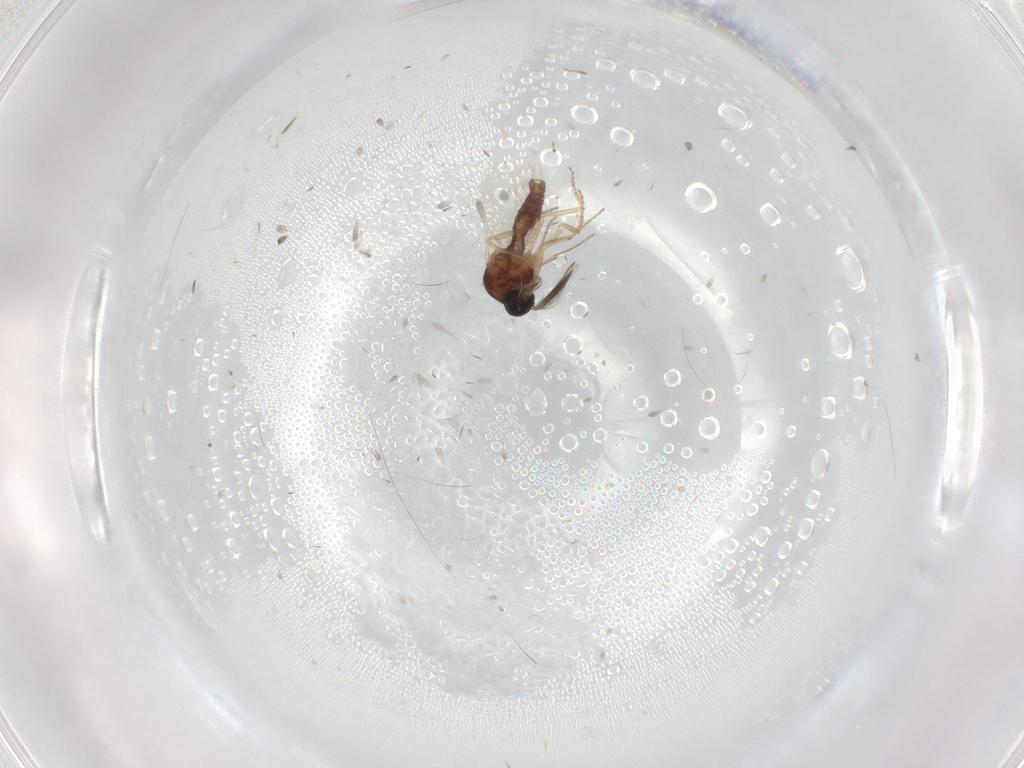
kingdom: Animalia
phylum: Arthropoda
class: Insecta
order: Diptera
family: Ceratopogonidae
